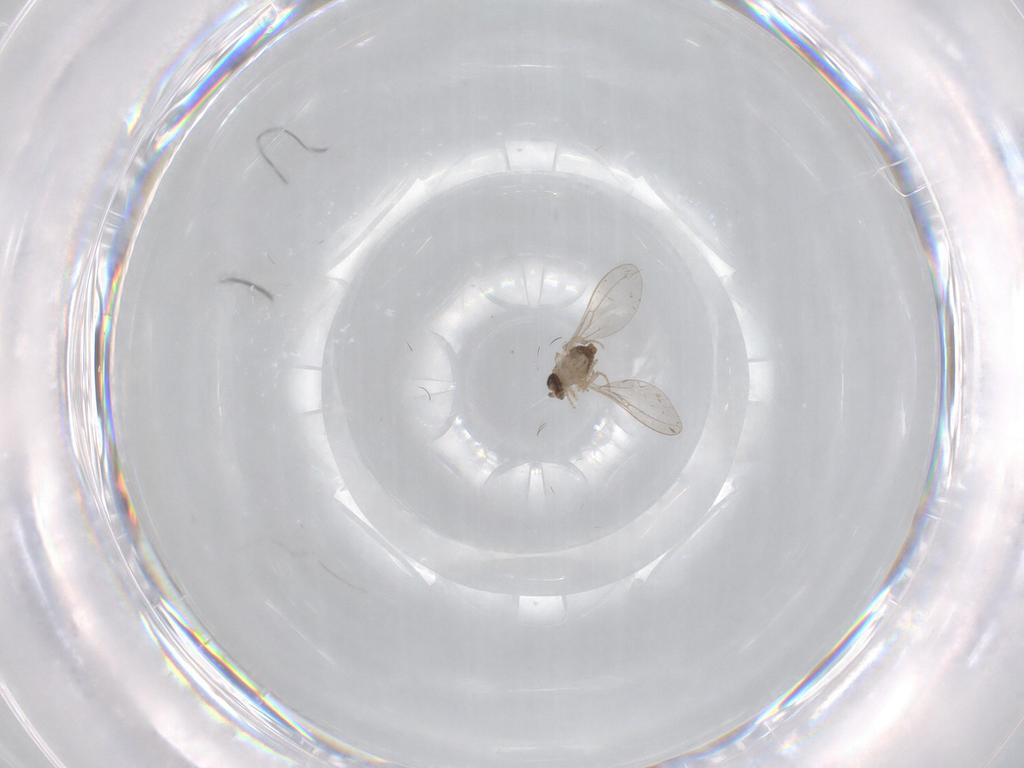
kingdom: Animalia
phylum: Arthropoda
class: Insecta
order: Diptera
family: Cecidomyiidae
